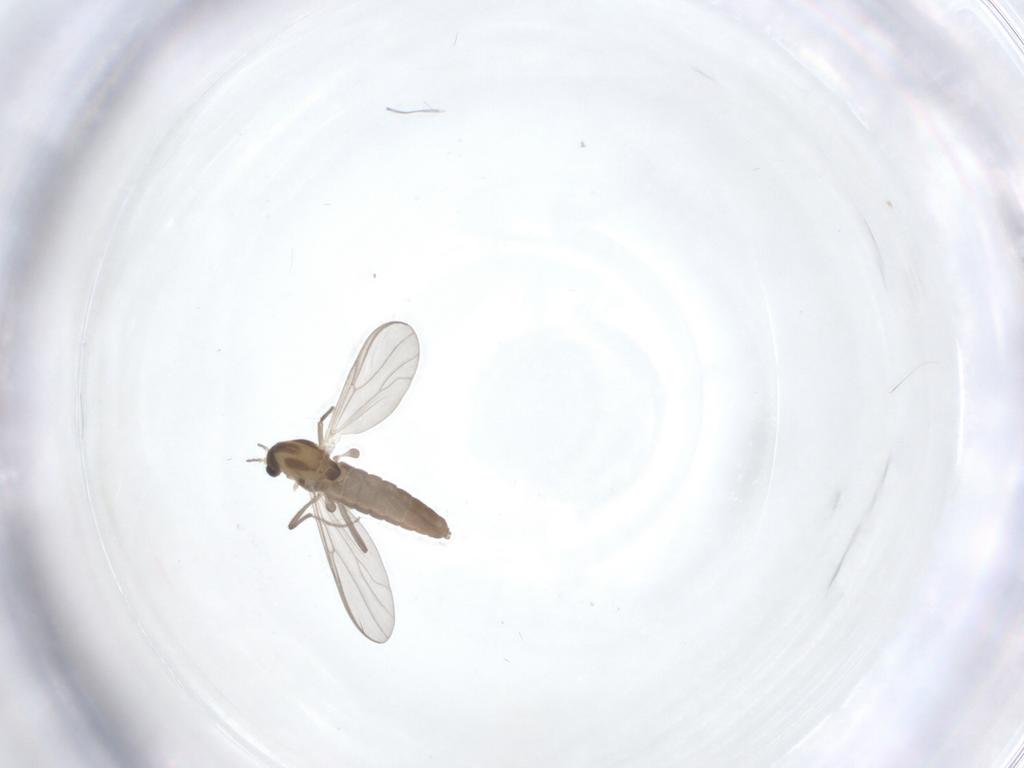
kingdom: Animalia
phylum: Arthropoda
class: Insecta
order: Diptera
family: Chironomidae
